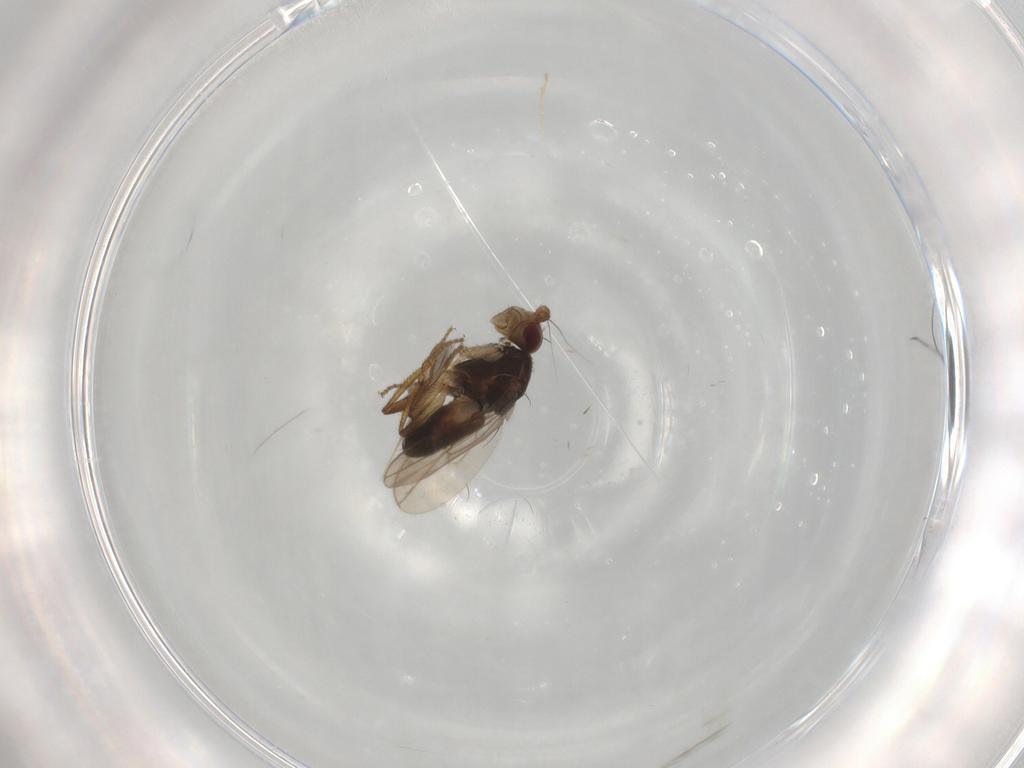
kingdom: Animalia
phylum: Arthropoda
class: Insecta
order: Diptera
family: Sphaeroceridae
